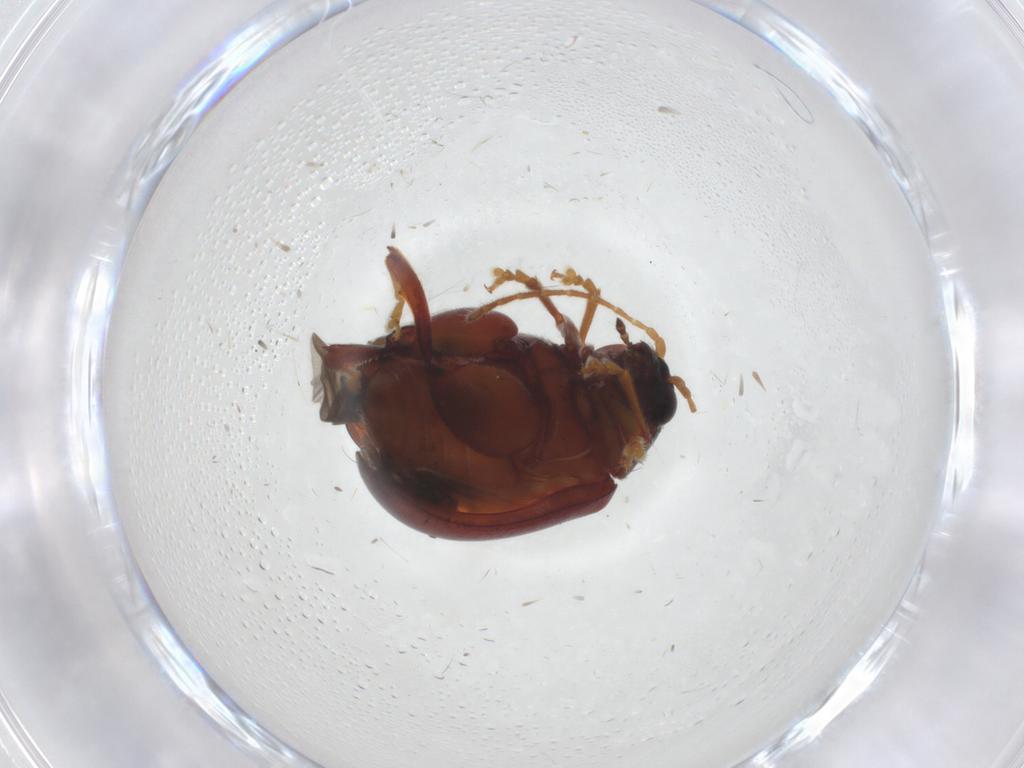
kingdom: Animalia
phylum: Arthropoda
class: Insecta
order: Coleoptera
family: Chrysomelidae
